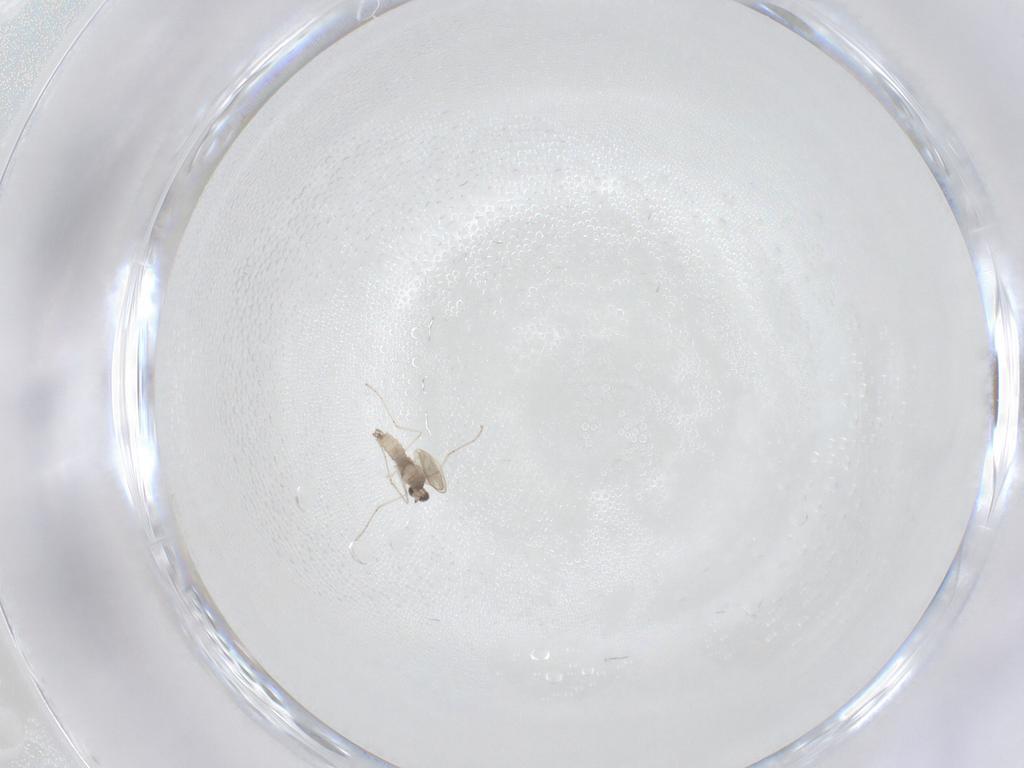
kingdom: Animalia
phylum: Arthropoda
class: Insecta
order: Diptera
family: Cecidomyiidae
